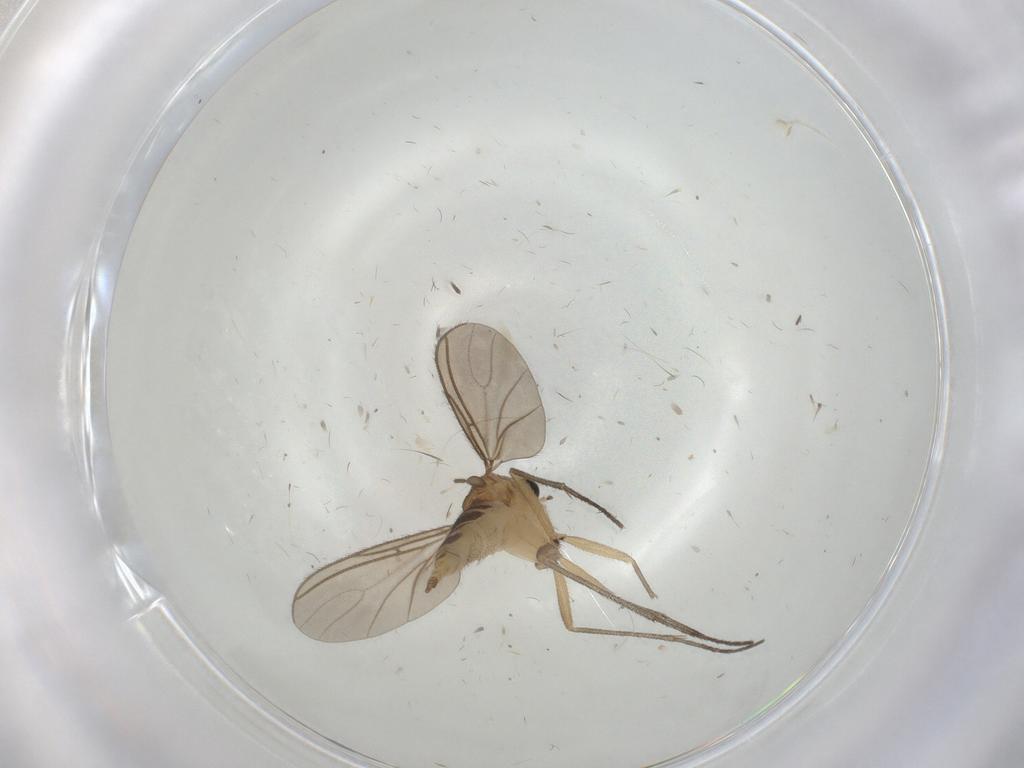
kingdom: Animalia
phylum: Arthropoda
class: Insecta
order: Diptera
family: Sciaridae
